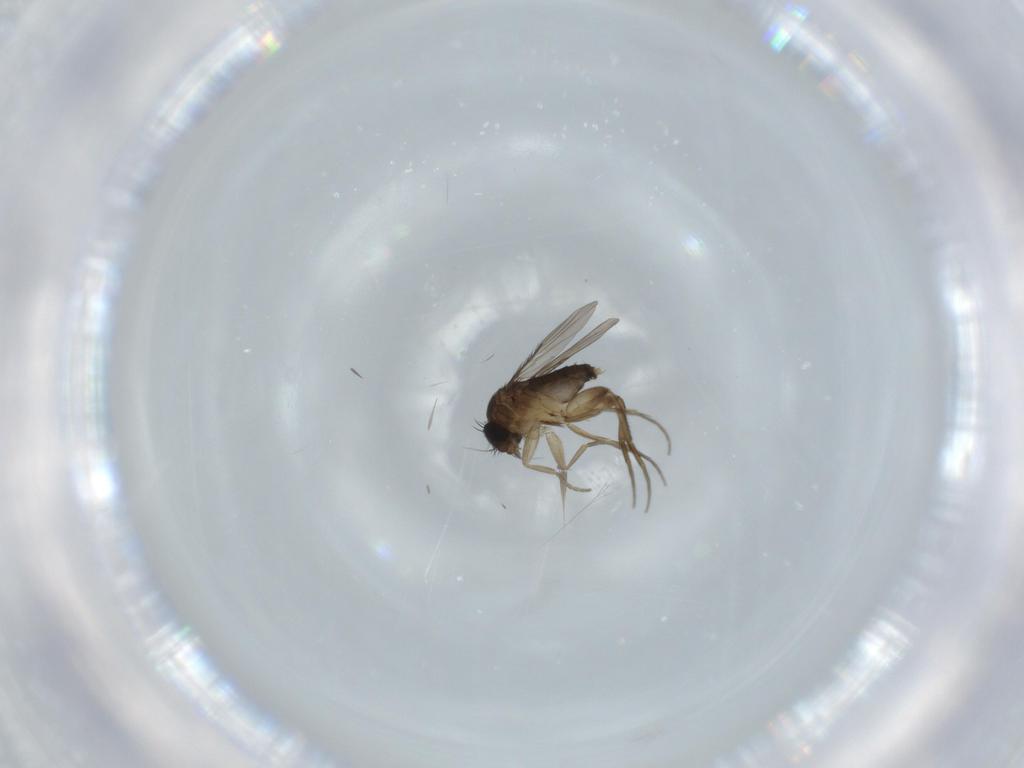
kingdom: Animalia
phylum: Arthropoda
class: Insecta
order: Diptera
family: Phoridae
